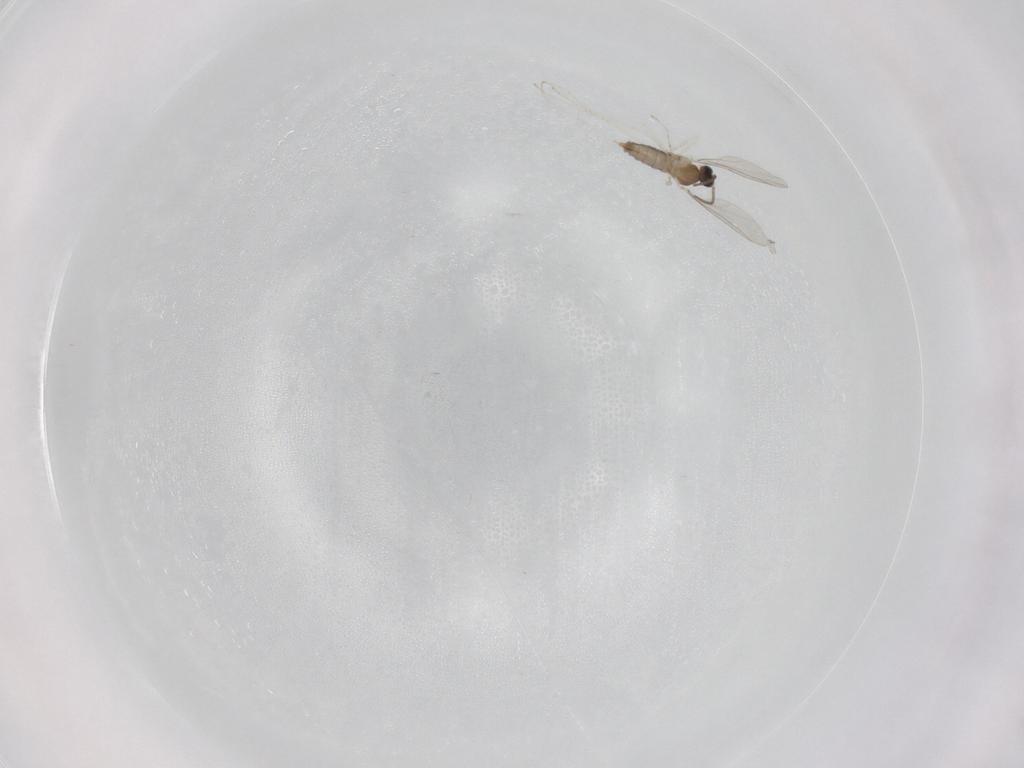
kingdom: Animalia
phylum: Arthropoda
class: Insecta
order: Diptera
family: Cecidomyiidae
